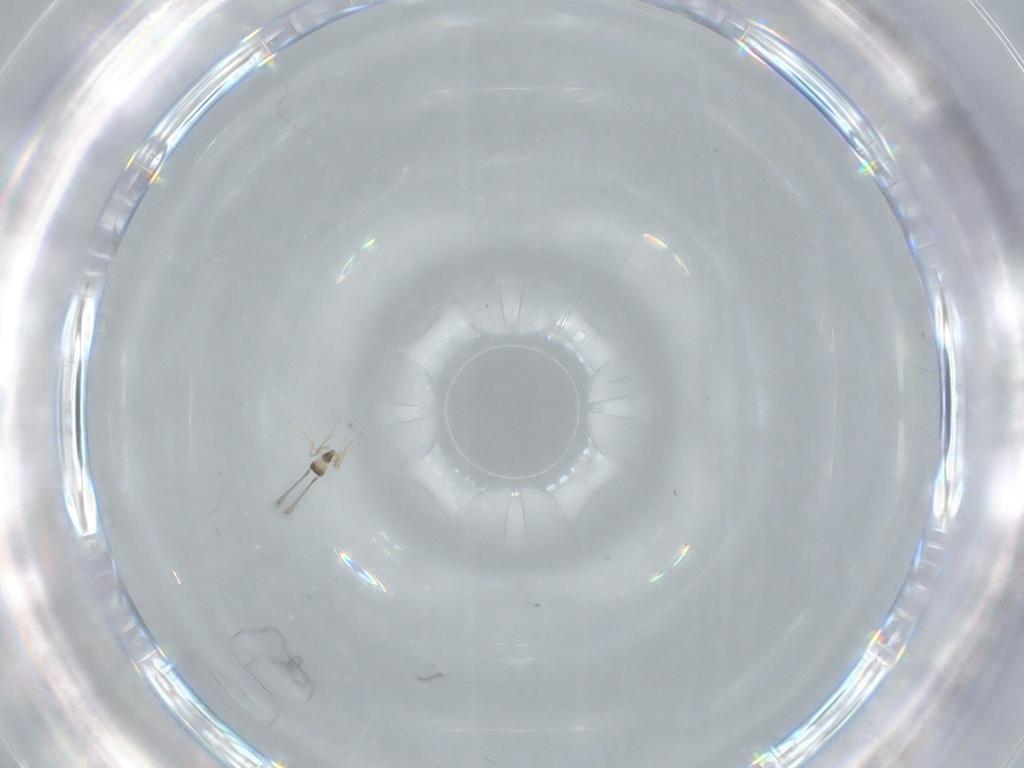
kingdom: Animalia
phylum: Arthropoda
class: Insecta
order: Hymenoptera
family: Mymaridae
